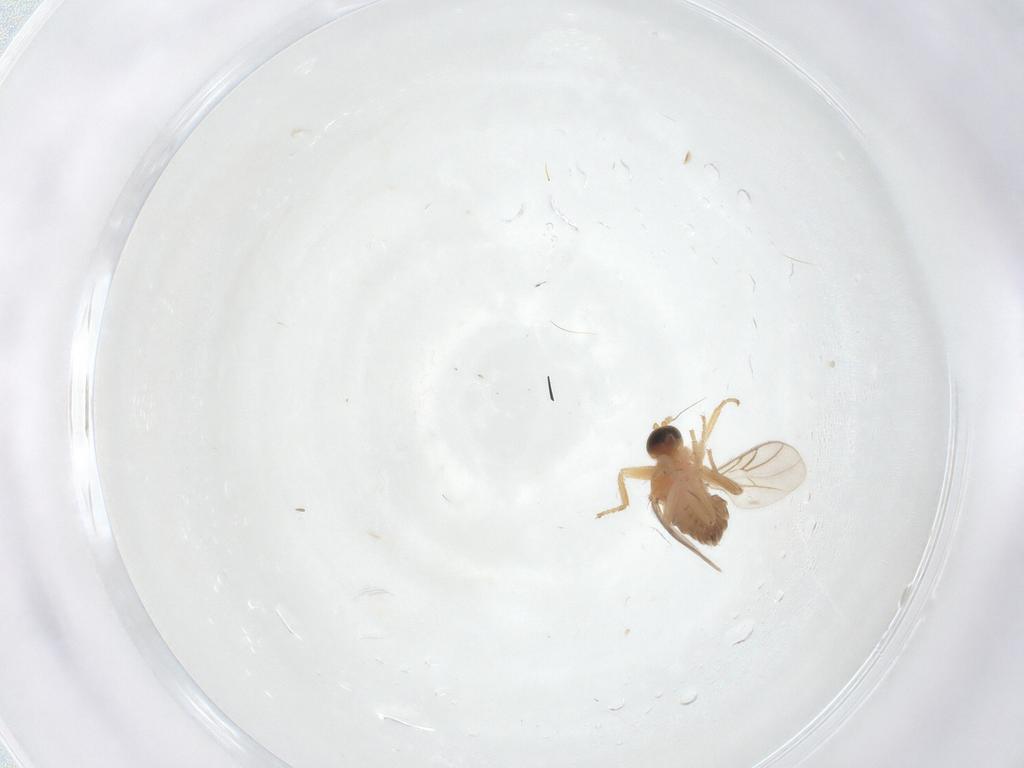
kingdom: Animalia
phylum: Arthropoda
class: Insecta
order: Diptera
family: Hybotidae
